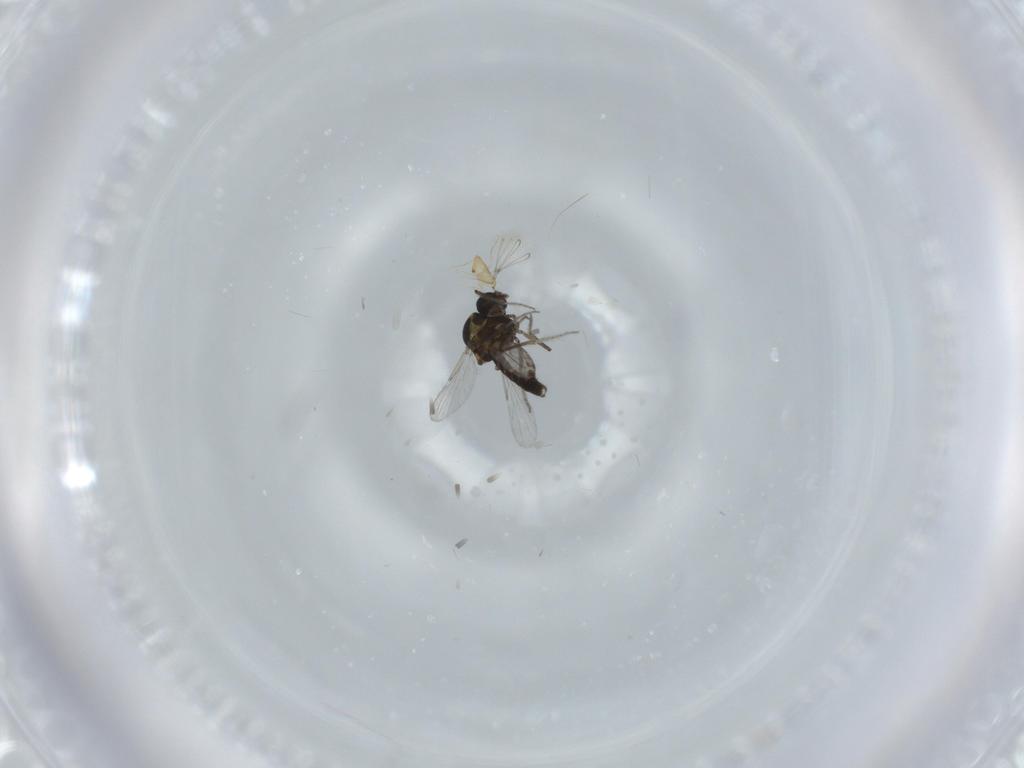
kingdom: Animalia
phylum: Arthropoda
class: Insecta
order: Diptera
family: Ceratopogonidae
